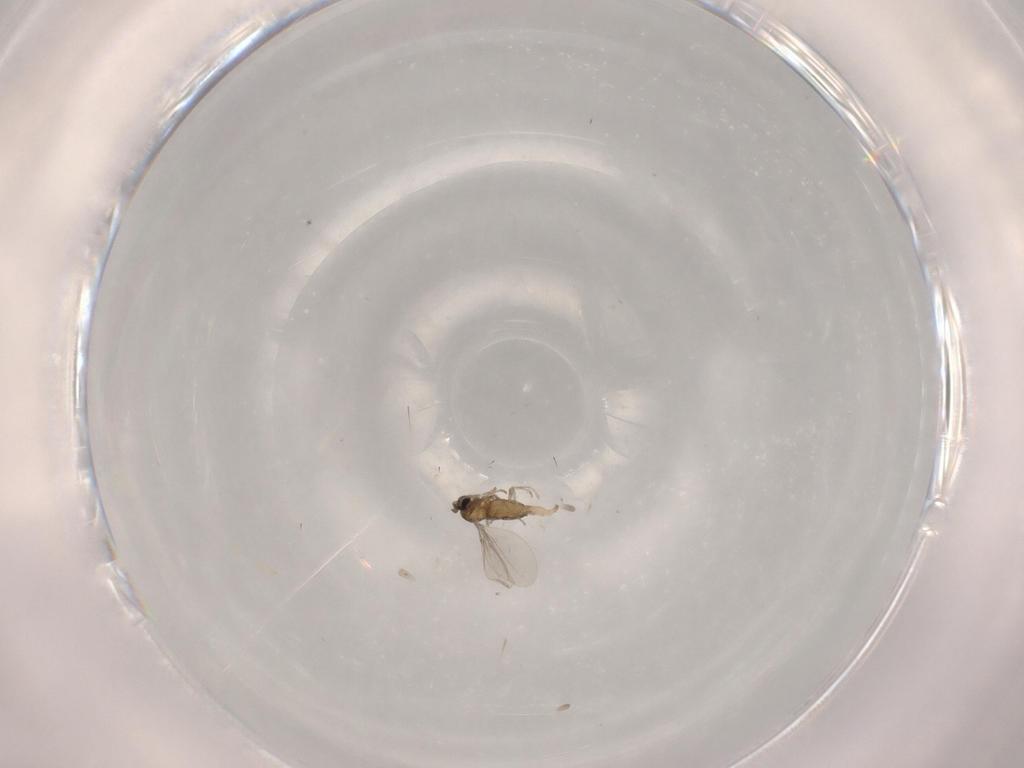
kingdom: Animalia
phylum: Arthropoda
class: Insecta
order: Diptera
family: Cecidomyiidae
